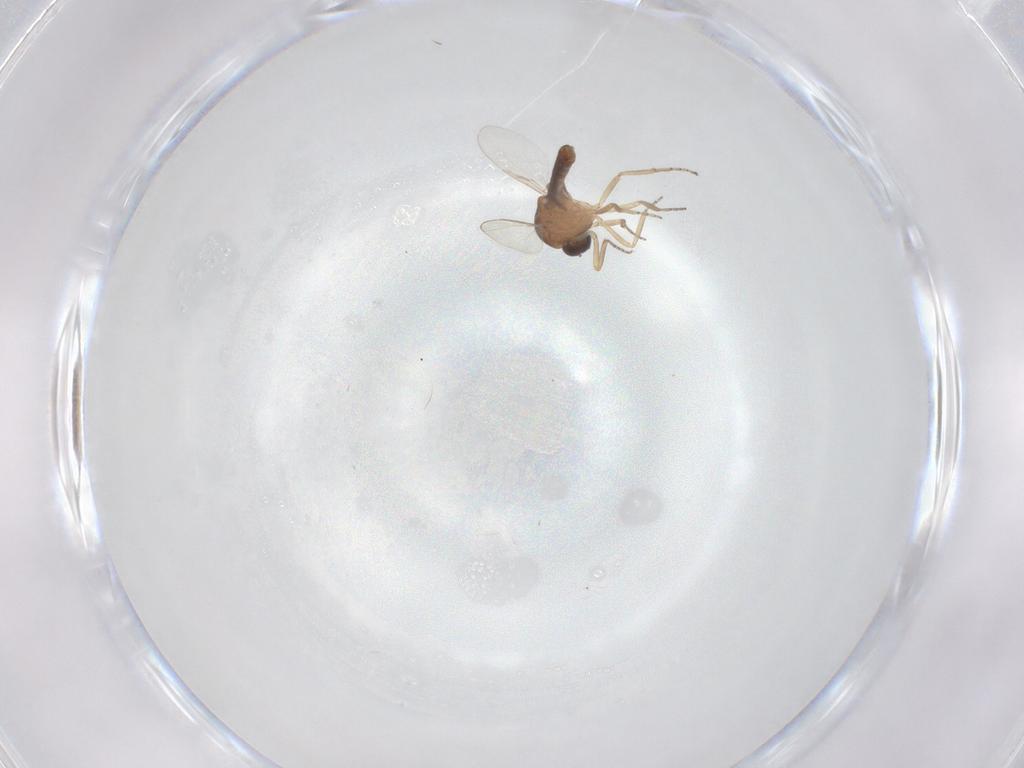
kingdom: Animalia
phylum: Arthropoda
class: Insecta
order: Diptera
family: Ceratopogonidae
